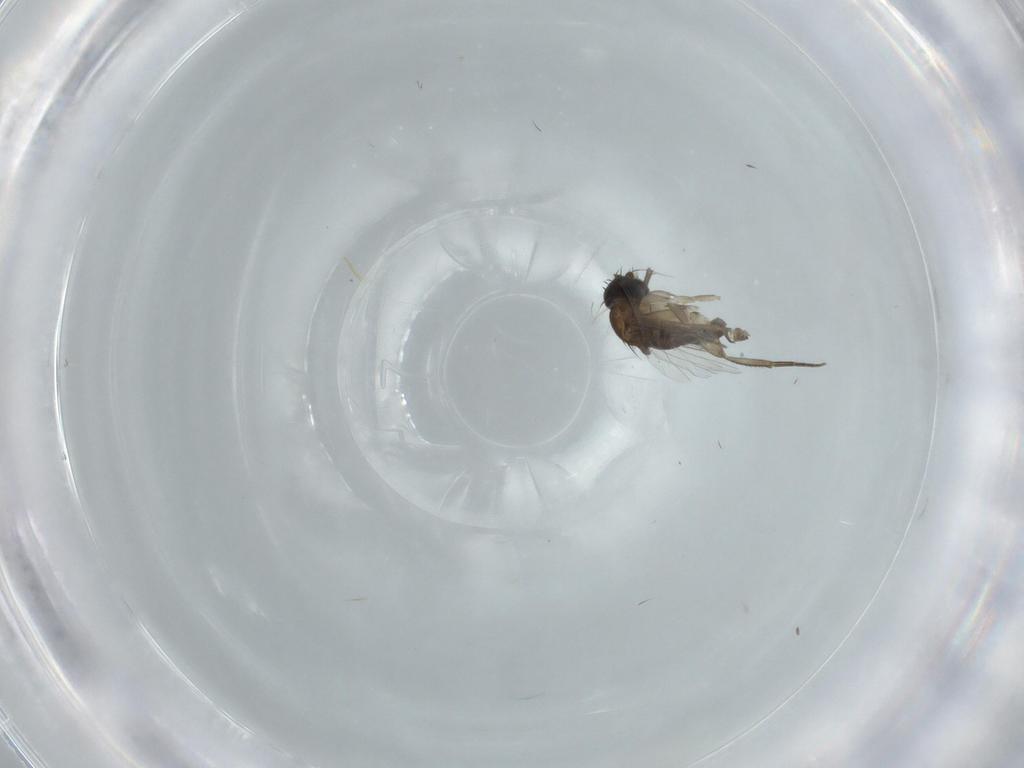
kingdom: Animalia
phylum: Arthropoda
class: Insecta
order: Diptera
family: Phoridae
